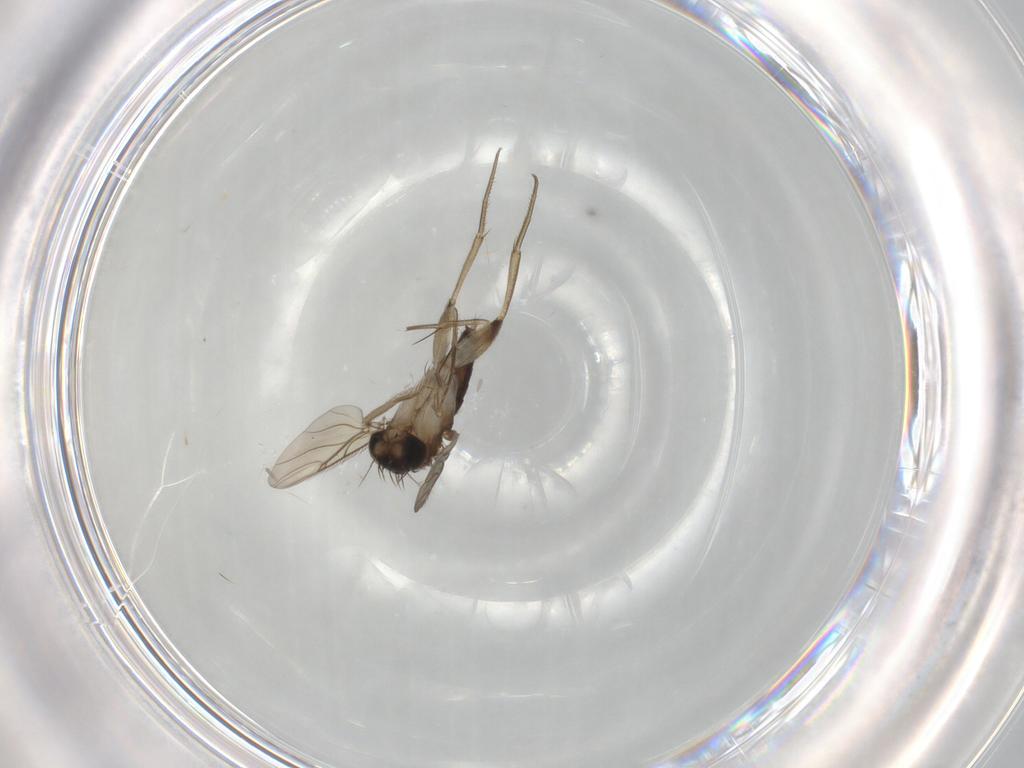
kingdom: Animalia
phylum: Arthropoda
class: Insecta
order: Diptera
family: Phoridae
